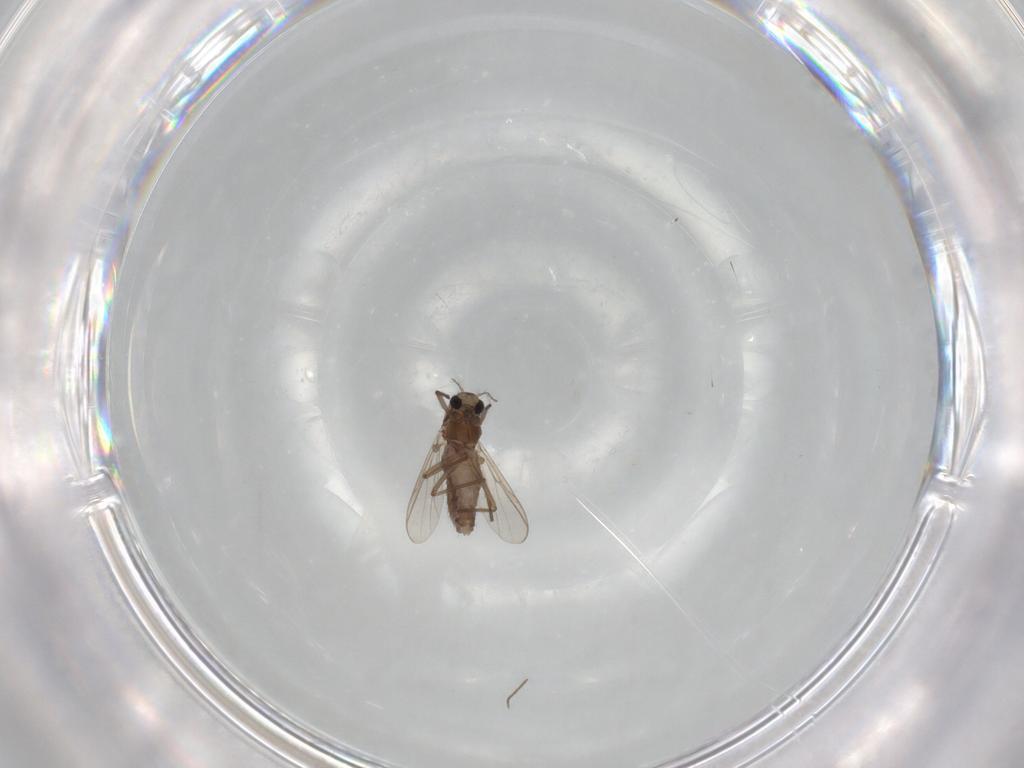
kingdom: Animalia
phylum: Arthropoda
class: Insecta
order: Diptera
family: Chironomidae
